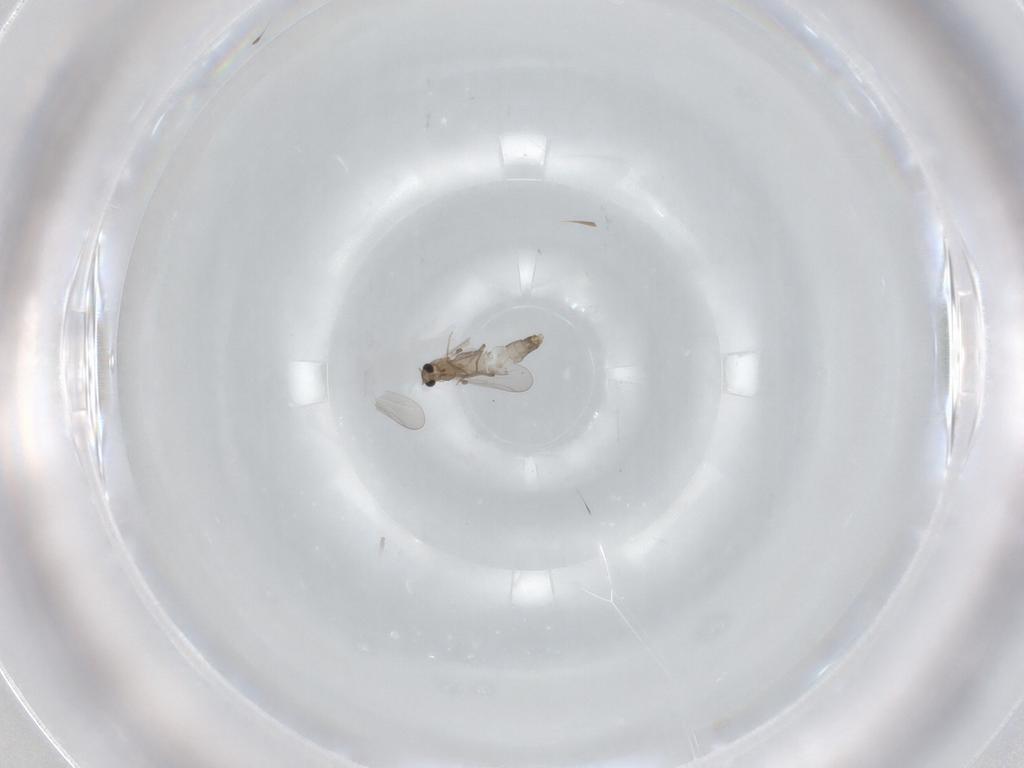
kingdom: Animalia
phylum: Arthropoda
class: Insecta
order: Diptera
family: Chironomidae
